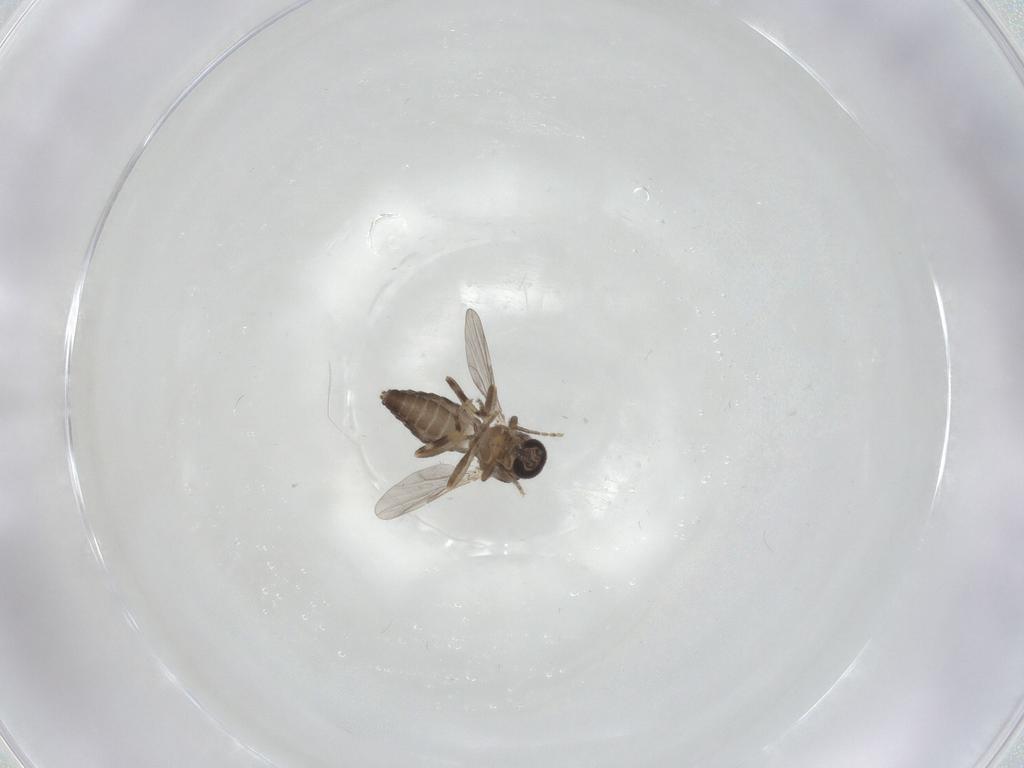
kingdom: Animalia
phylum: Arthropoda
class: Insecta
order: Diptera
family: Ceratopogonidae
